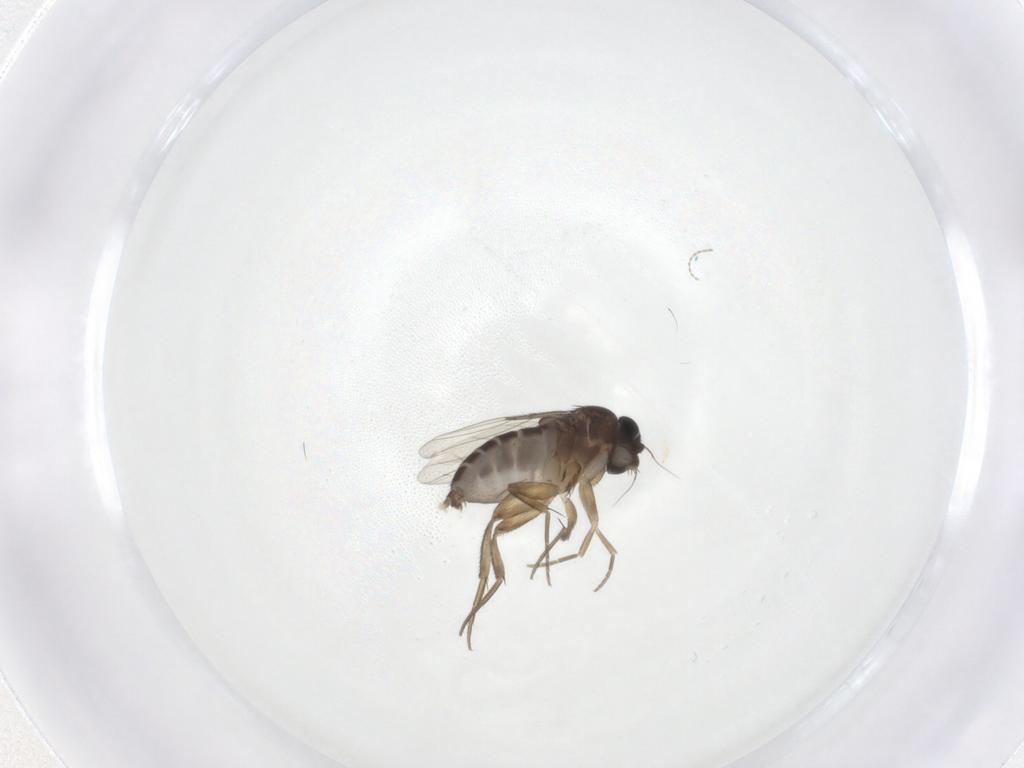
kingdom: Animalia
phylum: Arthropoda
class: Insecta
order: Diptera
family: Phoridae
